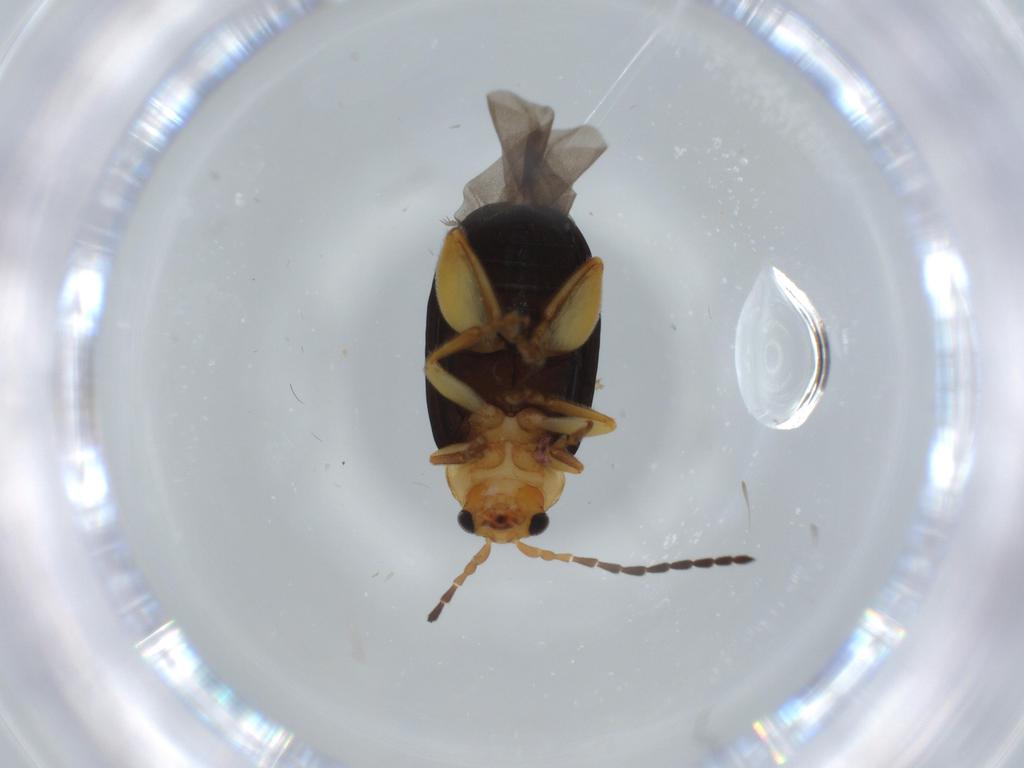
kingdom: Animalia
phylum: Arthropoda
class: Insecta
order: Coleoptera
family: Chrysomelidae
